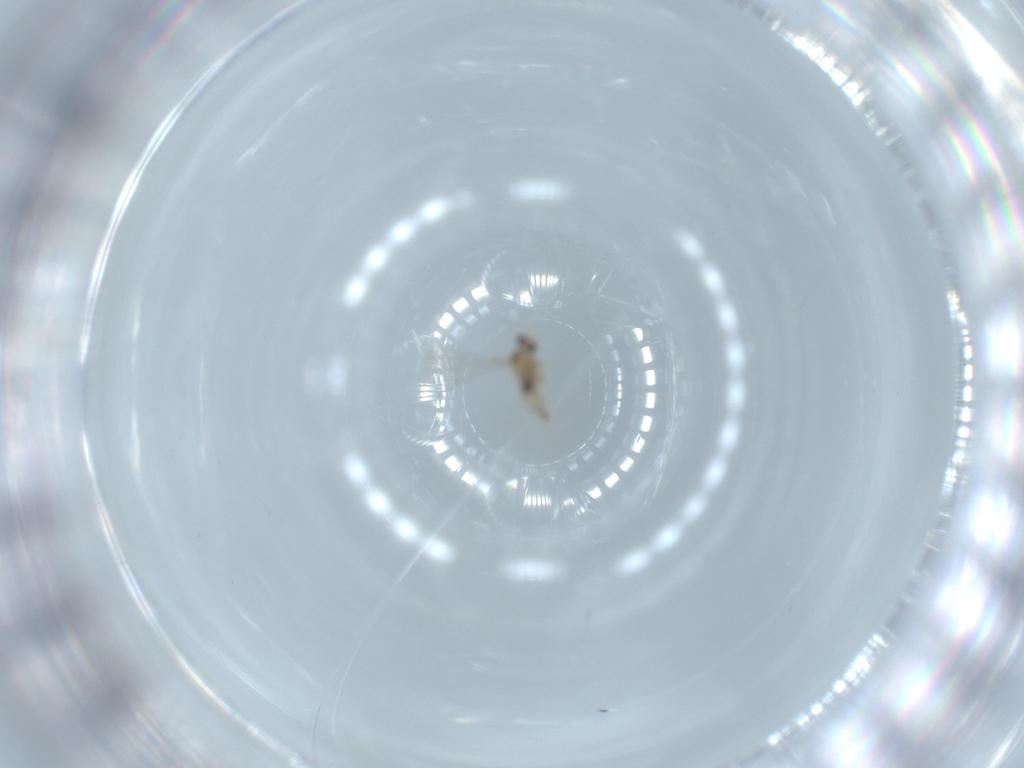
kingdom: Animalia
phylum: Arthropoda
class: Insecta
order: Diptera
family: Cecidomyiidae
